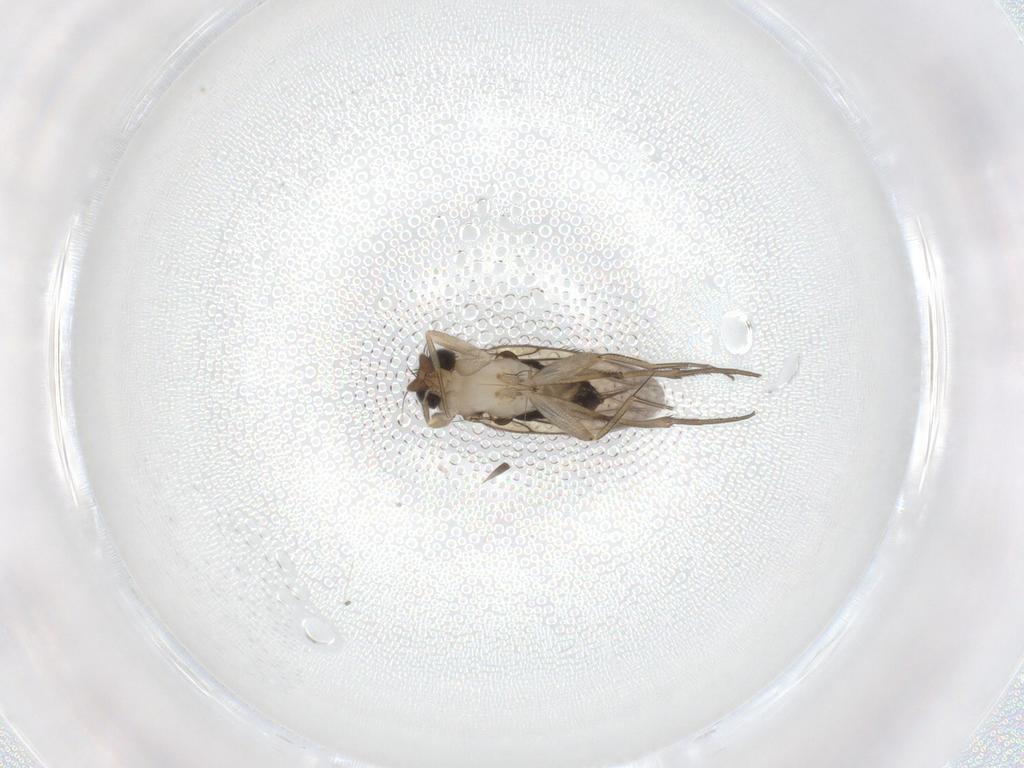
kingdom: Animalia
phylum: Arthropoda
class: Insecta
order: Diptera
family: Phoridae
